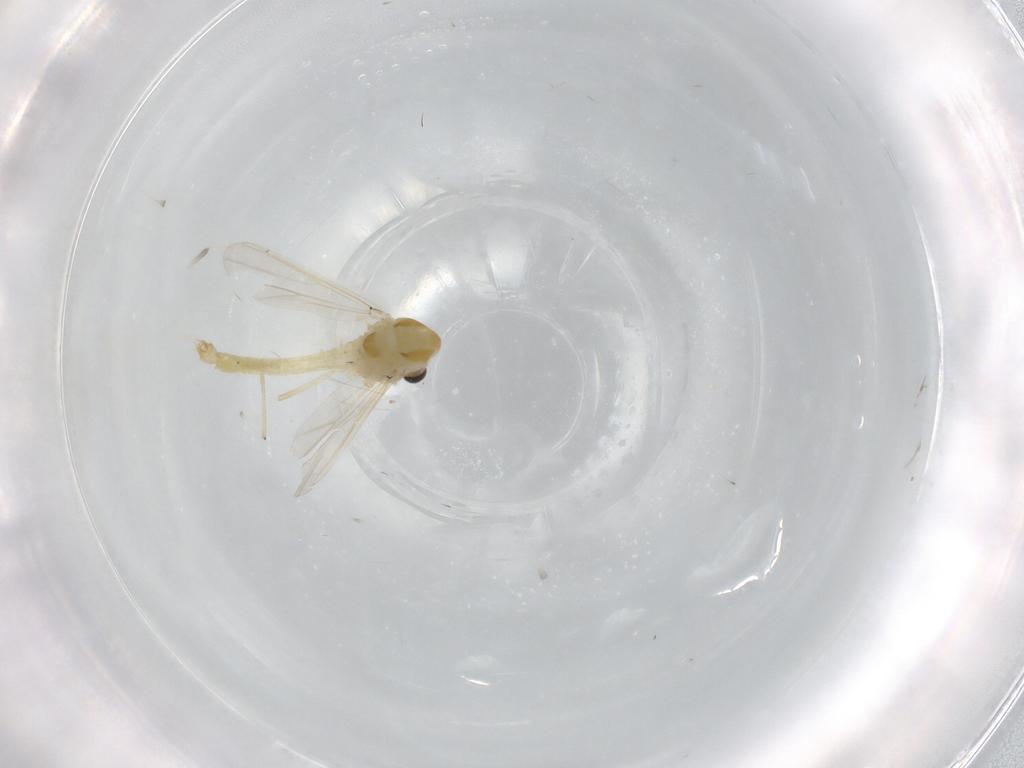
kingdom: Animalia
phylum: Arthropoda
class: Insecta
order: Diptera
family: Chironomidae
